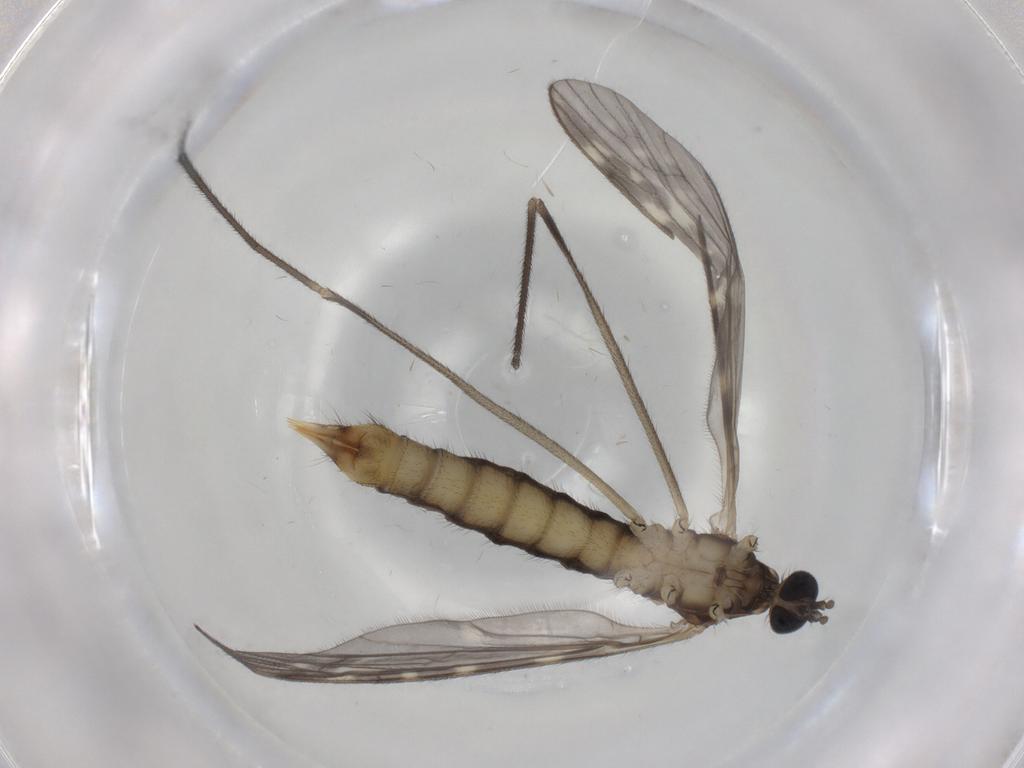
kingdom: Animalia
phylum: Arthropoda
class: Insecta
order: Diptera
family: Limoniidae
